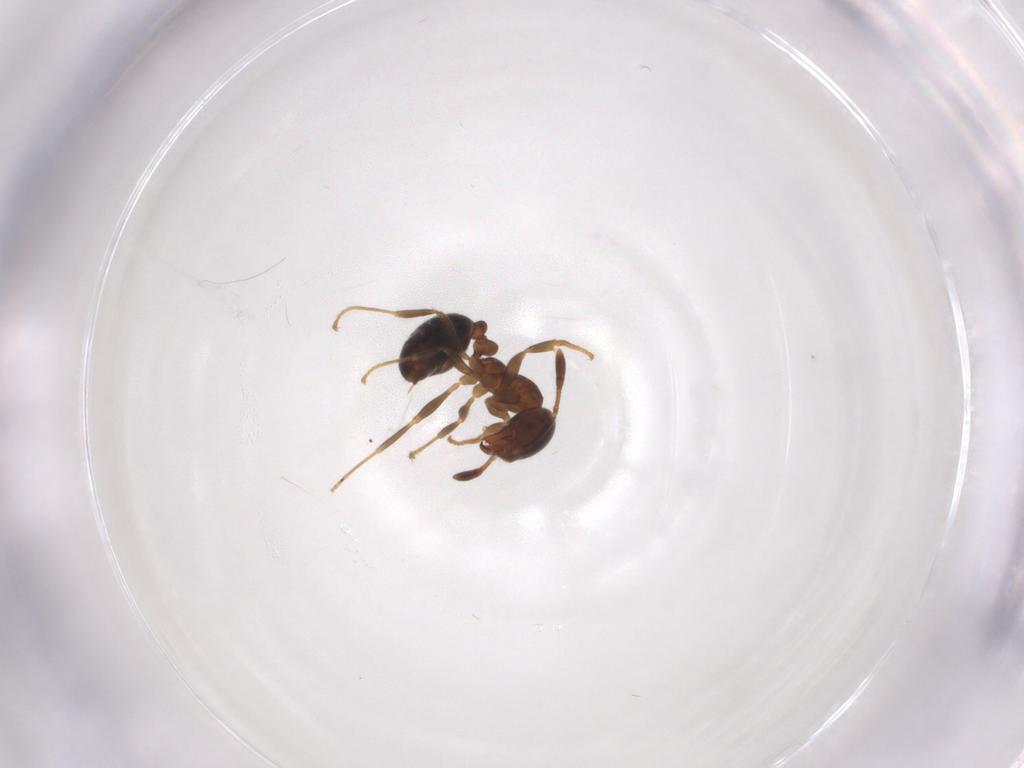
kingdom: Animalia
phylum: Arthropoda
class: Insecta
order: Hymenoptera
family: Formicidae
